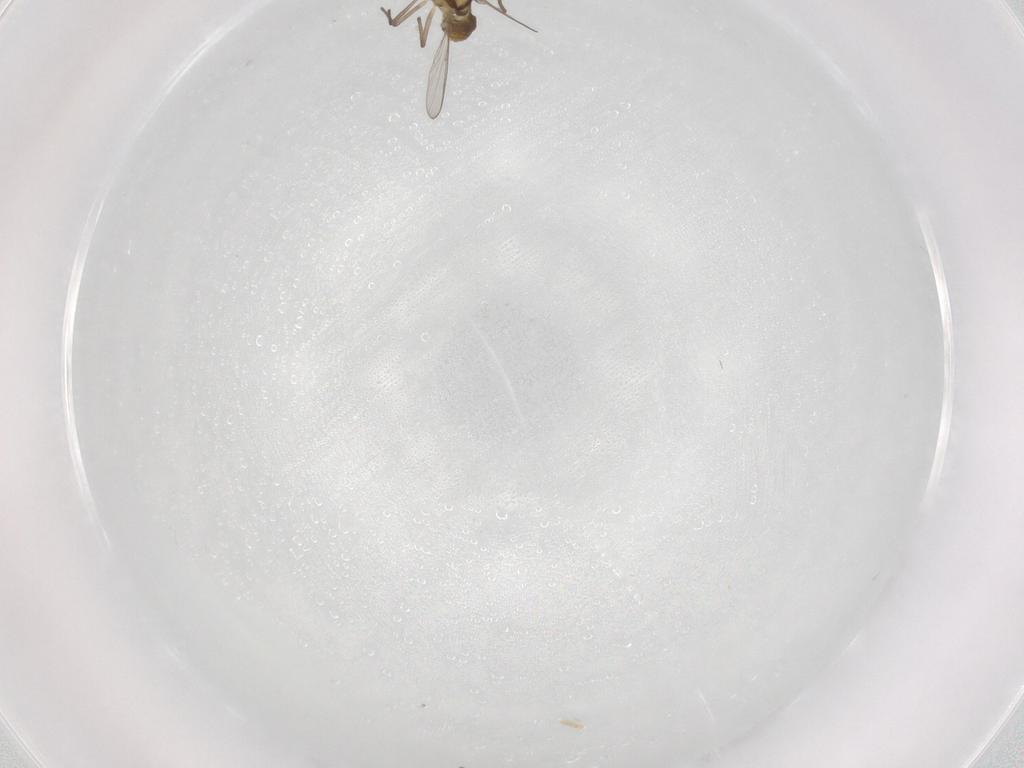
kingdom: Animalia
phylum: Arthropoda
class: Insecta
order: Diptera
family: Chironomidae
